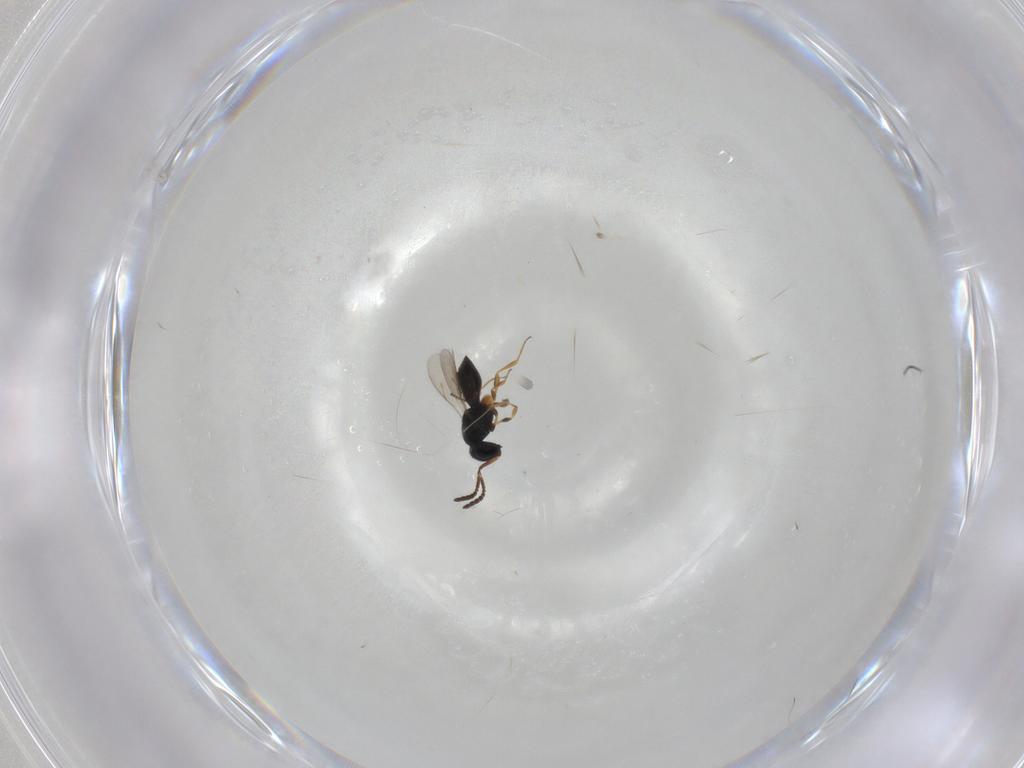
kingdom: Animalia
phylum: Arthropoda
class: Insecta
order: Hymenoptera
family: Scelionidae
